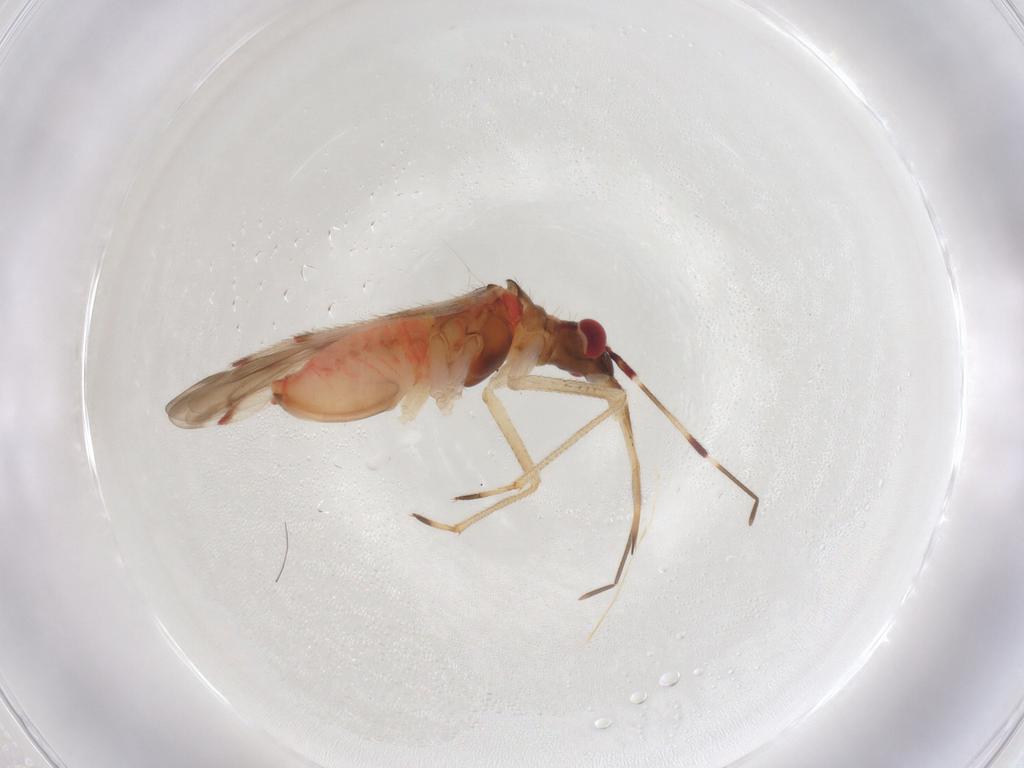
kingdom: Animalia
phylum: Arthropoda
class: Insecta
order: Hemiptera
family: Miridae
